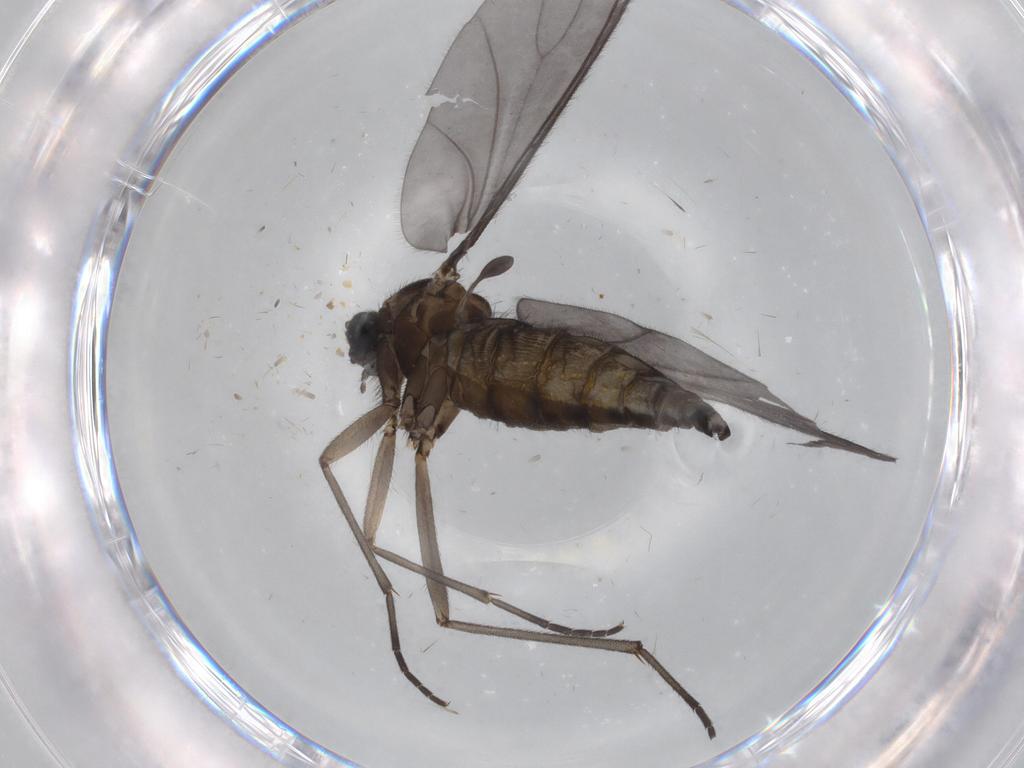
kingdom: Animalia
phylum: Arthropoda
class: Insecta
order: Diptera
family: Sciaridae
